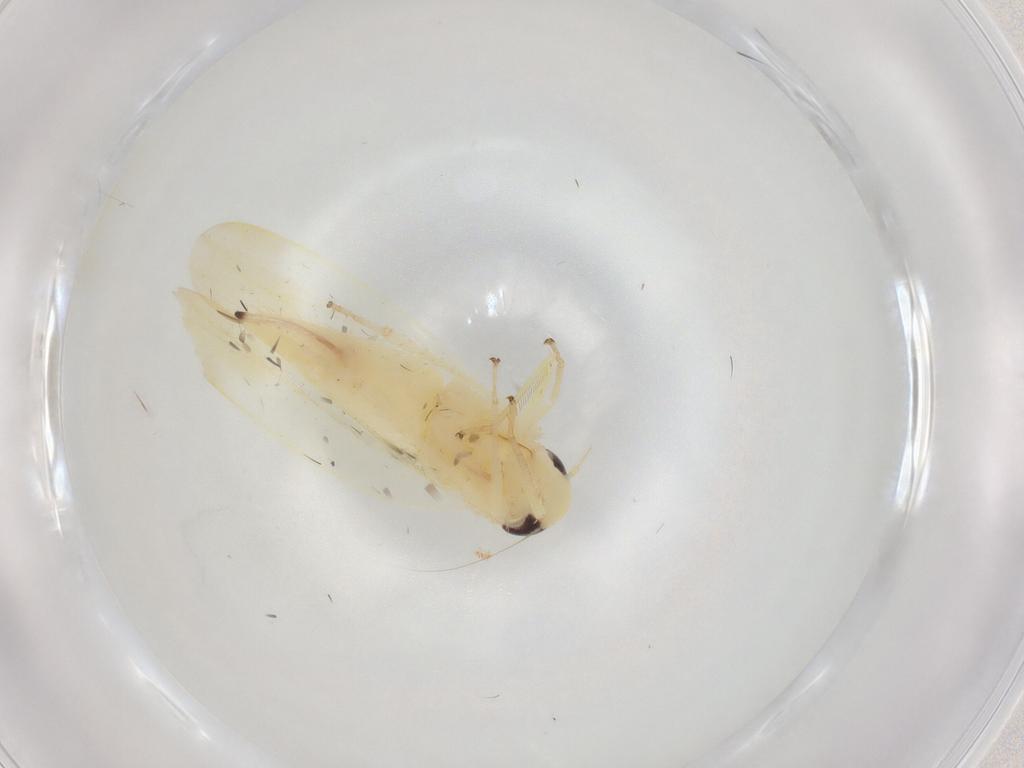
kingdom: Animalia
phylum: Arthropoda
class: Insecta
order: Hemiptera
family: Cicadellidae
